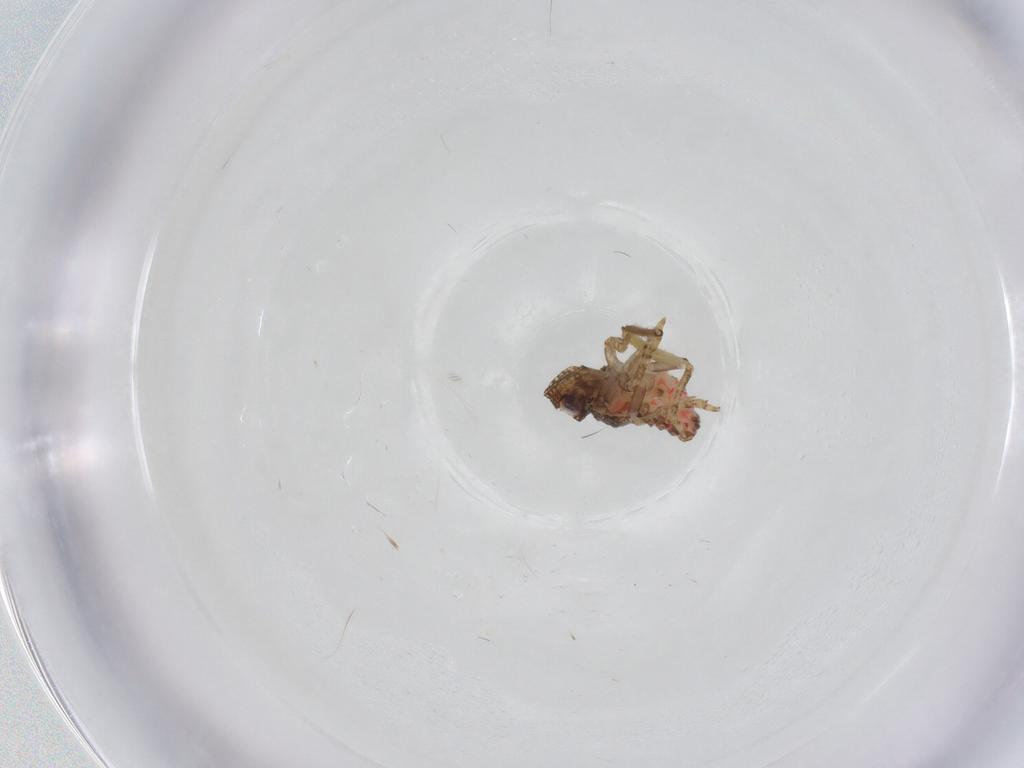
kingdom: Animalia
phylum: Arthropoda
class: Insecta
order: Hemiptera
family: Nogodinidae
